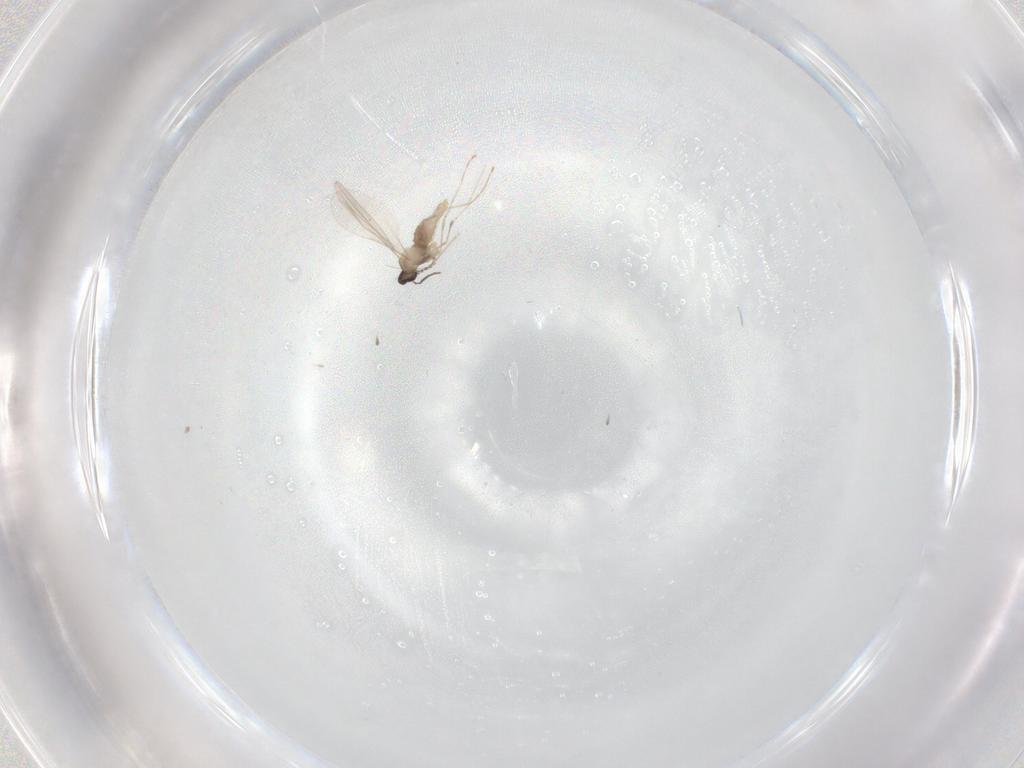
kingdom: Animalia
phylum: Arthropoda
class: Insecta
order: Diptera
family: Cecidomyiidae
